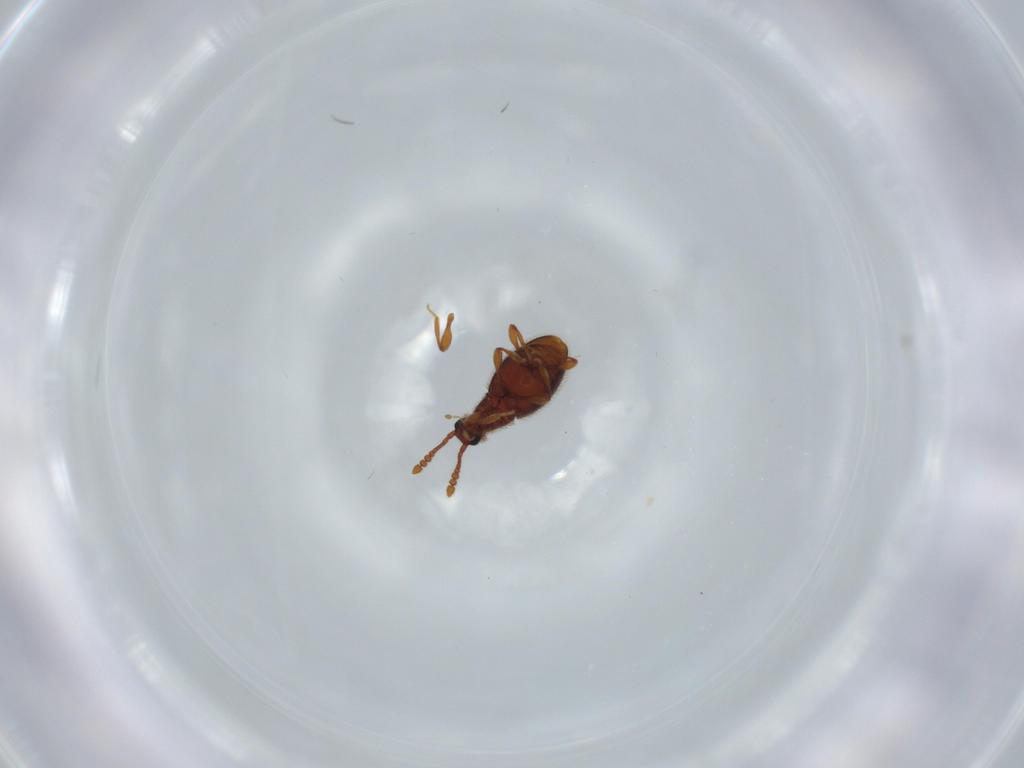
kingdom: Animalia
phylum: Arthropoda
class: Insecta
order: Coleoptera
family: Staphylinidae
